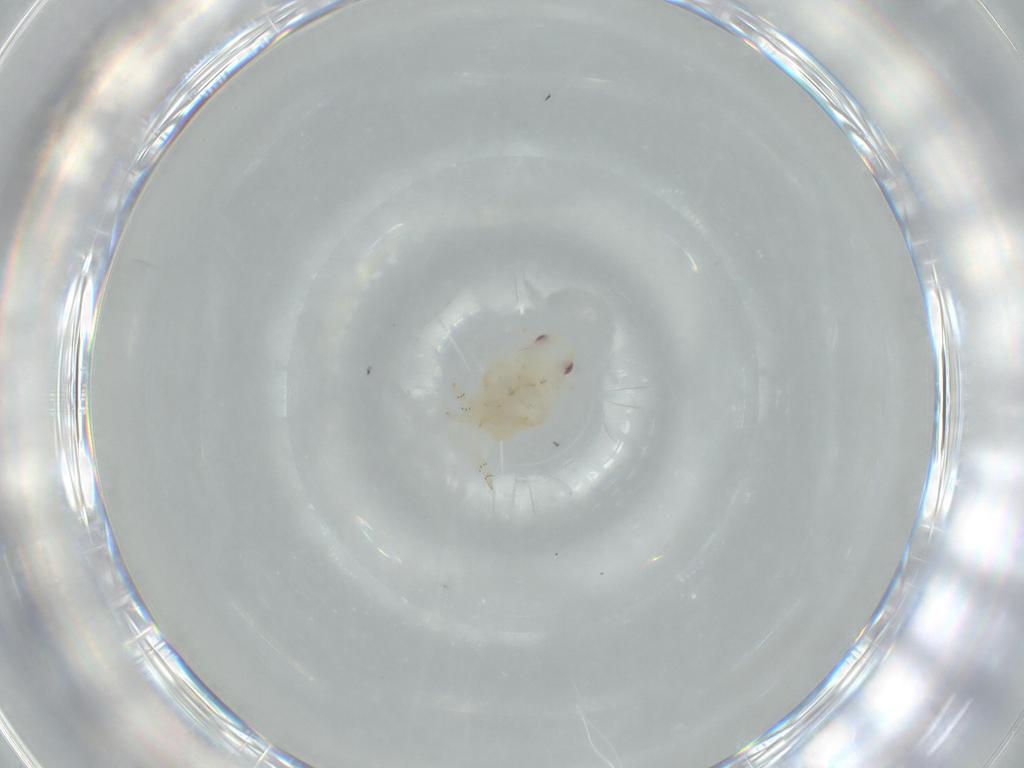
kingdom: Animalia
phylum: Arthropoda
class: Insecta
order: Hemiptera
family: Flatidae
